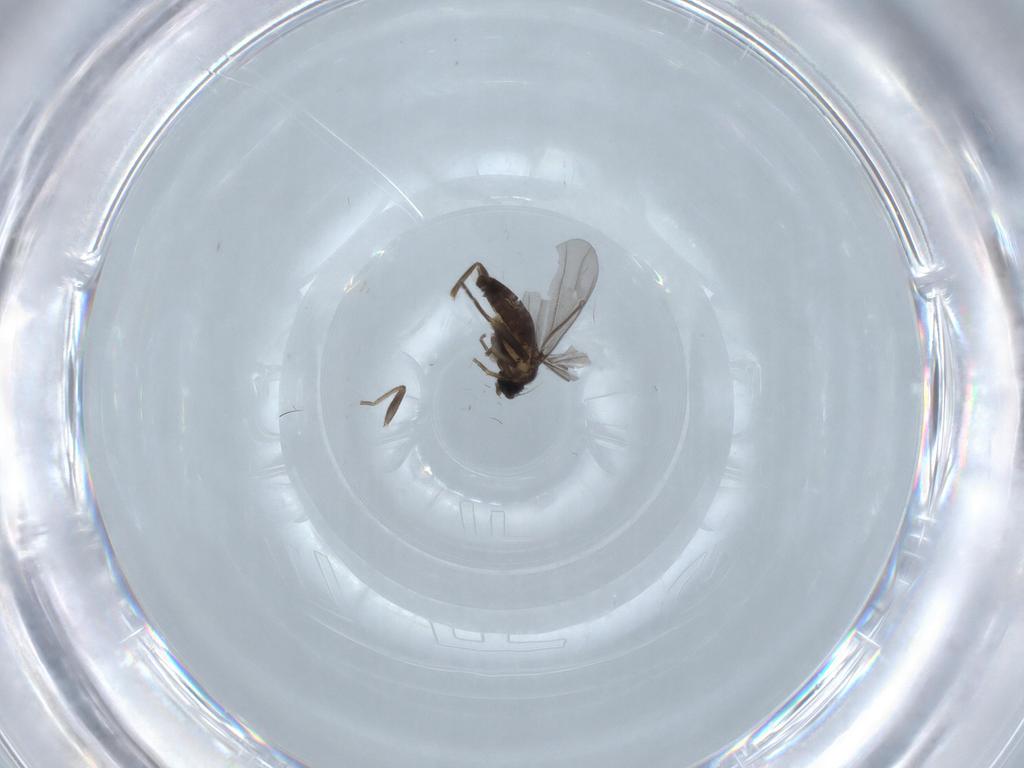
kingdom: Animalia
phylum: Arthropoda
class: Insecta
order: Diptera
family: Phoridae
